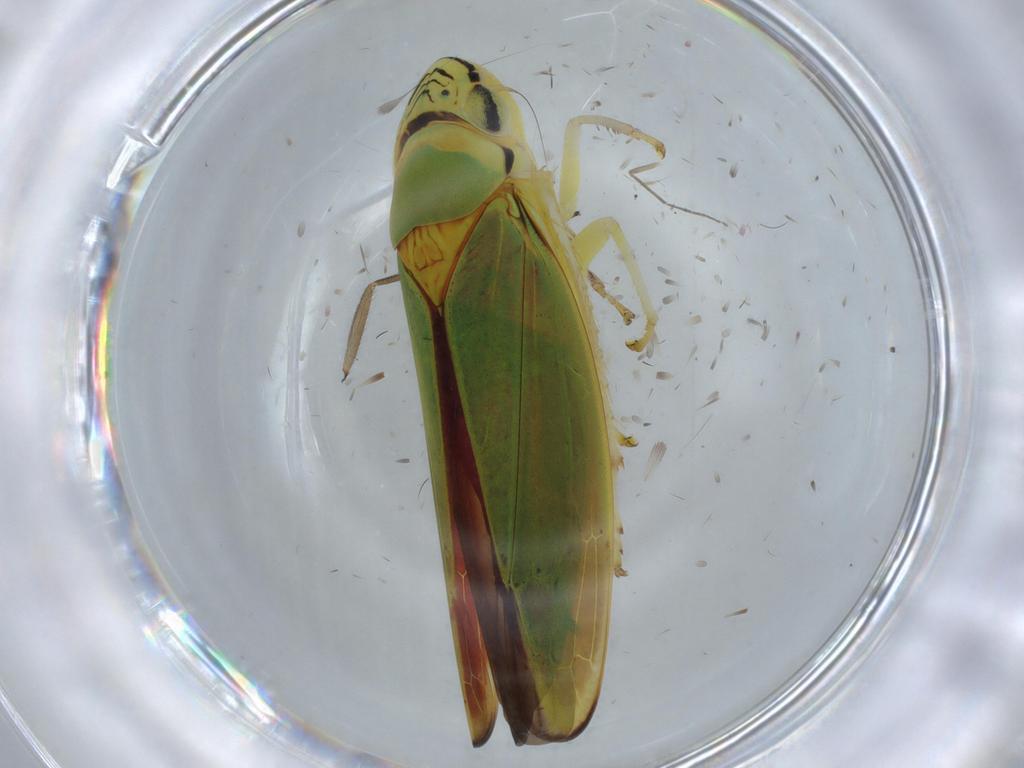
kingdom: Animalia
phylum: Arthropoda
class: Insecta
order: Hemiptera
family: Cicadellidae
